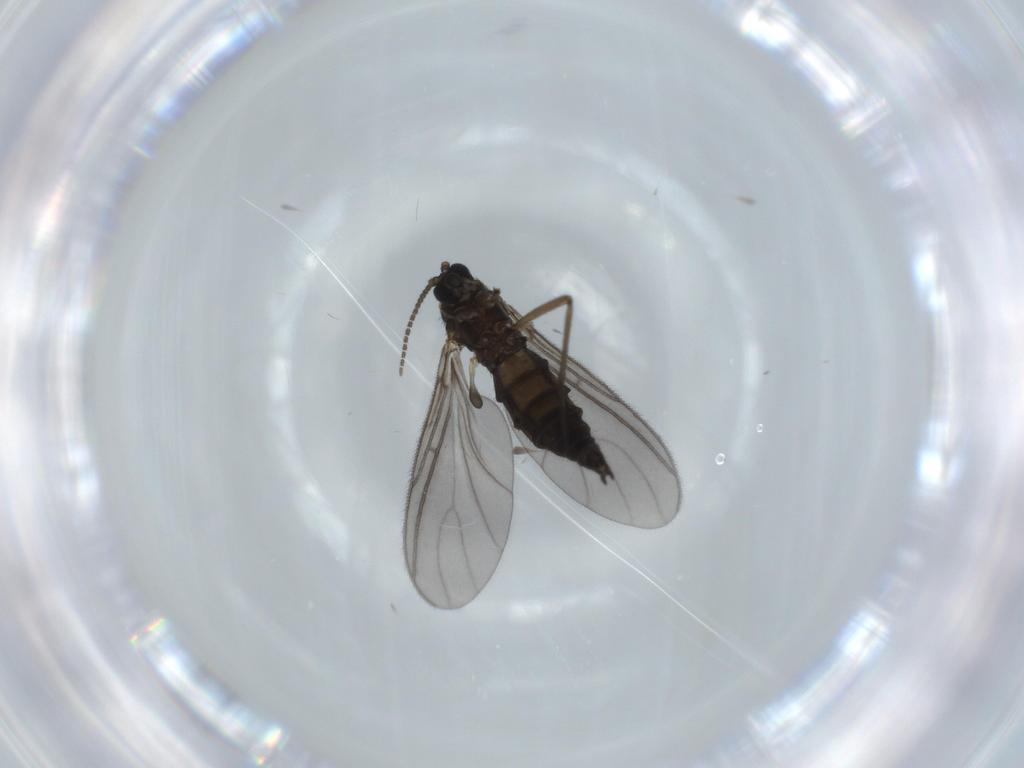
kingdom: Animalia
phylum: Arthropoda
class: Insecta
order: Diptera
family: Sciaridae
